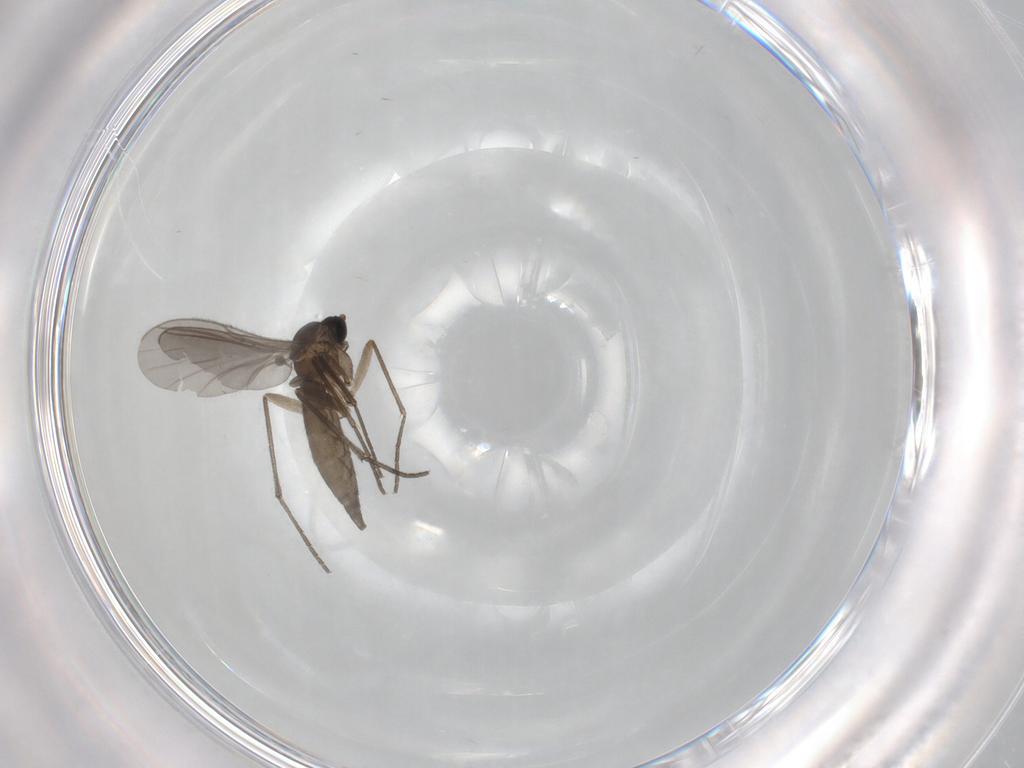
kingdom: Animalia
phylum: Arthropoda
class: Insecta
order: Diptera
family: Sciaridae
